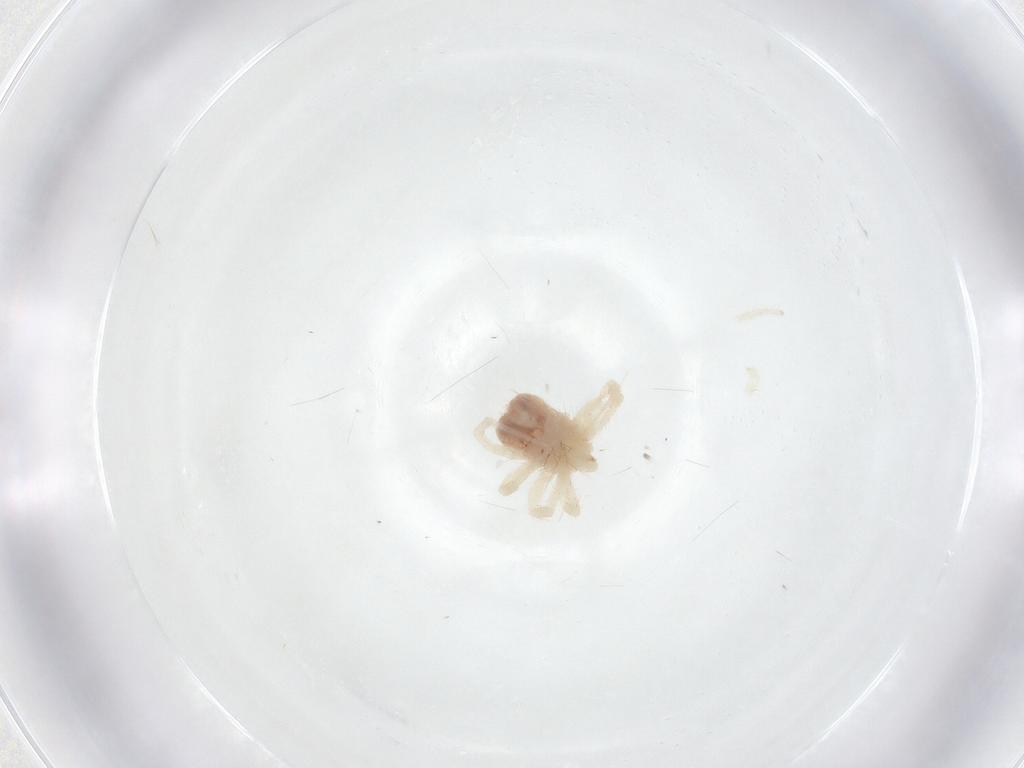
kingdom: Animalia
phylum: Arthropoda
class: Arachnida
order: Trombidiformes
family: Anystidae
